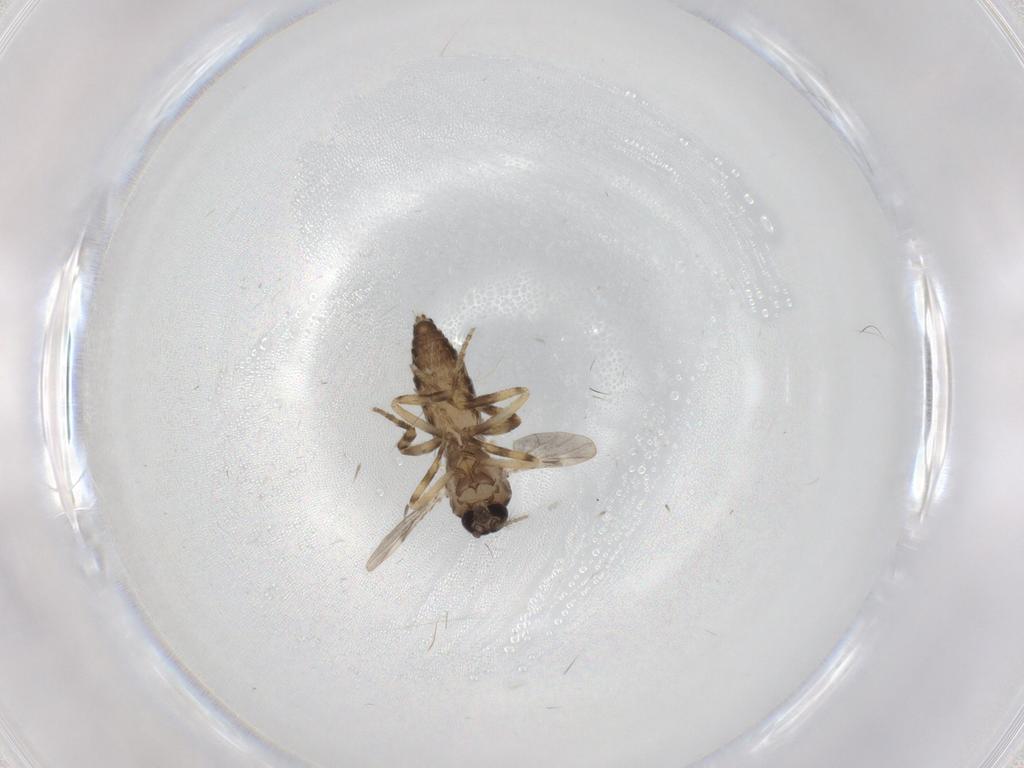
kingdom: Animalia
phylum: Arthropoda
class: Insecta
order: Diptera
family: Ceratopogonidae
